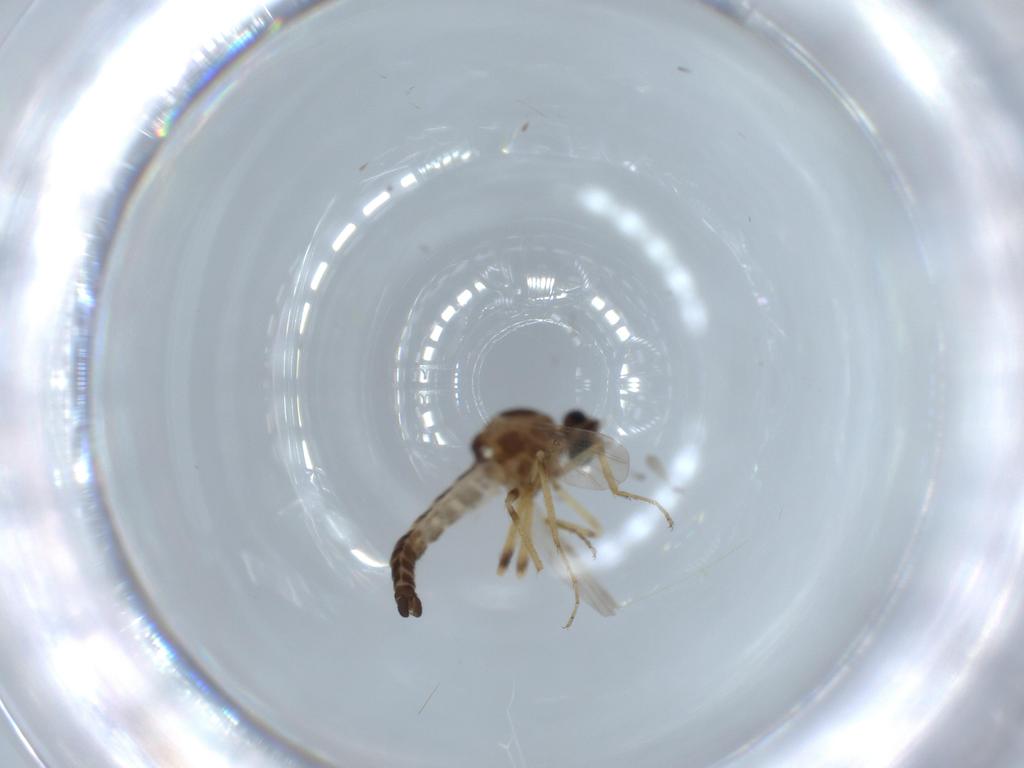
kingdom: Animalia
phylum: Arthropoda
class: Insecta
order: Diptera
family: Ceratopogonidae
